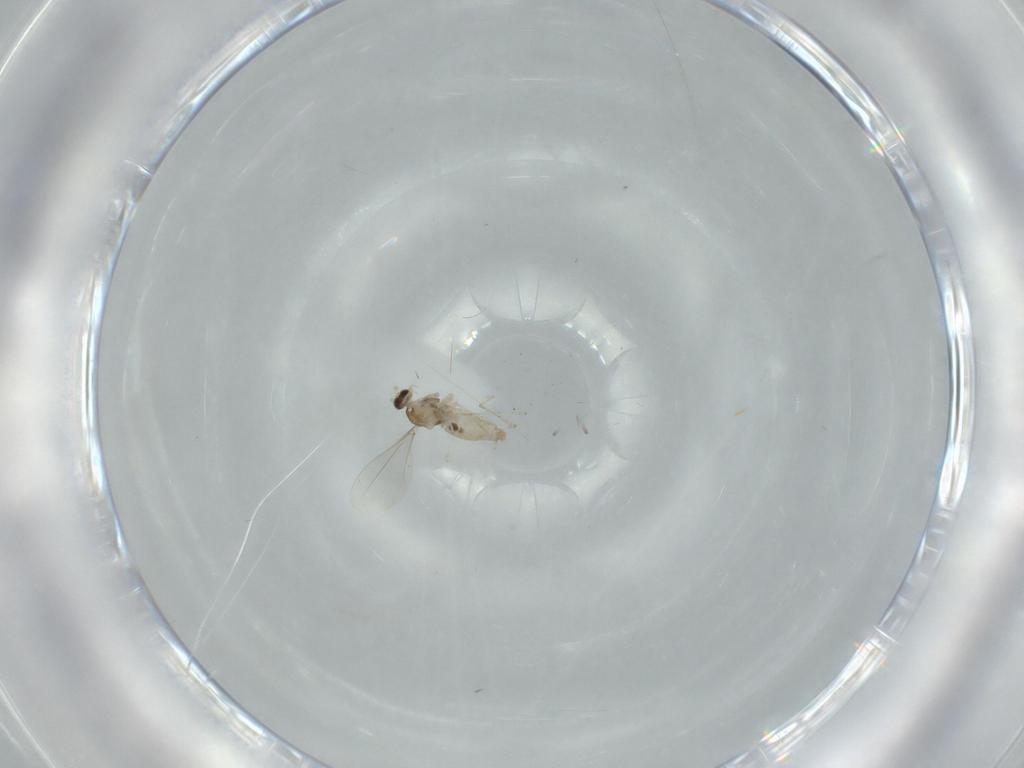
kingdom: Animalia
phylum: Arthropoda
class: Insecta
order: Diptera
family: Cecidomyiidae
